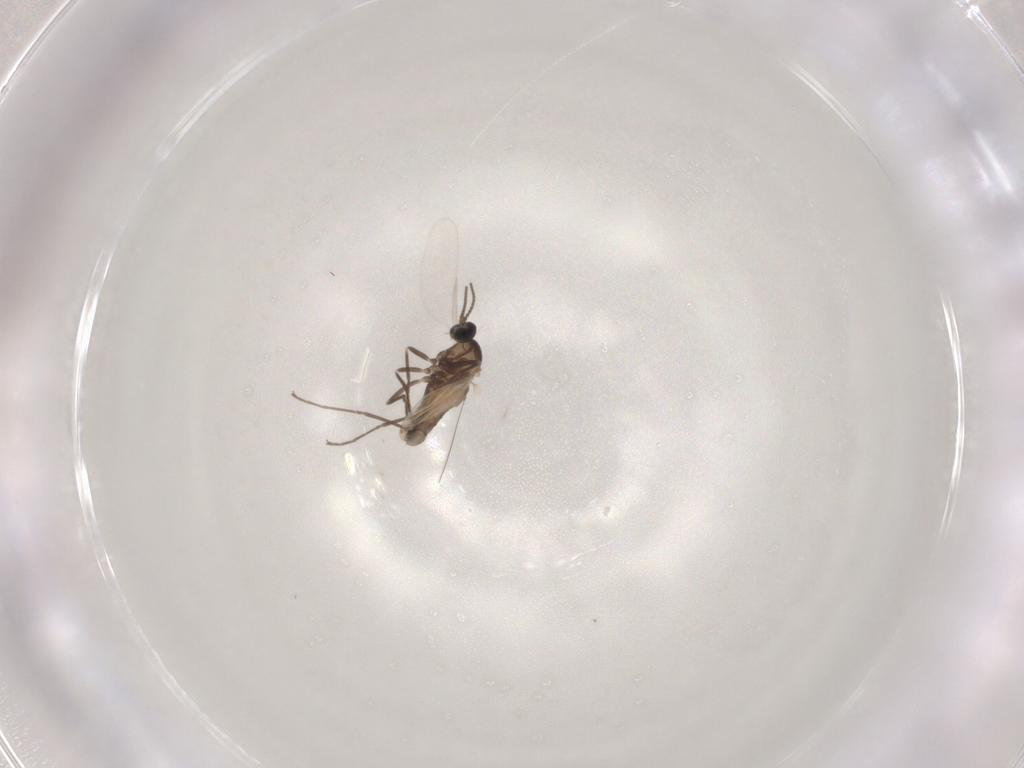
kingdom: Animalia
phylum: Arthropoda
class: Insecta
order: Diptera
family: Cecidomyiidae
